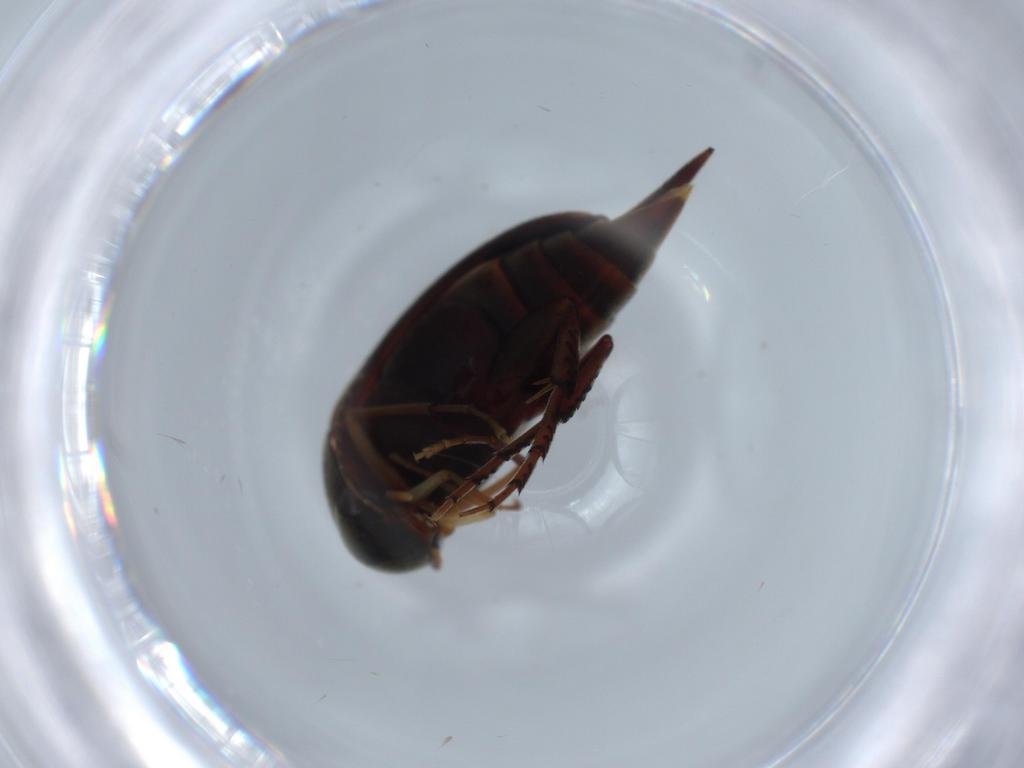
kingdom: Animalia
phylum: Arthropoda
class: Insecta
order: Coleoptera
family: Mordellidae
